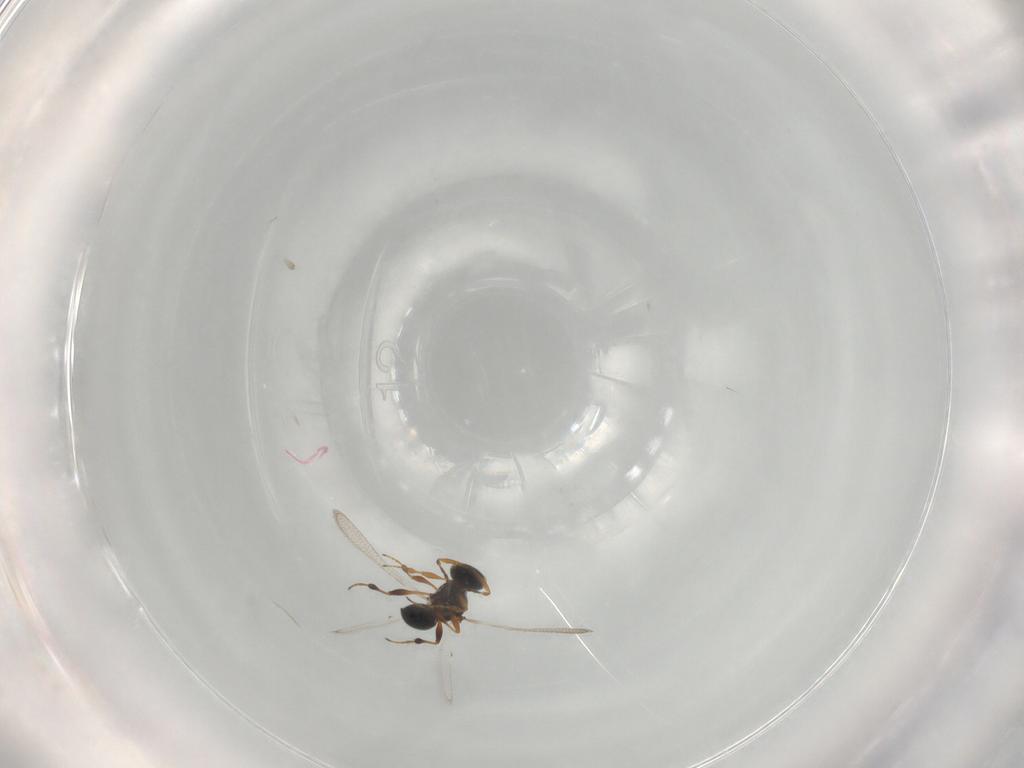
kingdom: Animalia
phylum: Arthropoda
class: Insecta
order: Hymenoptera
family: Platygastridae
